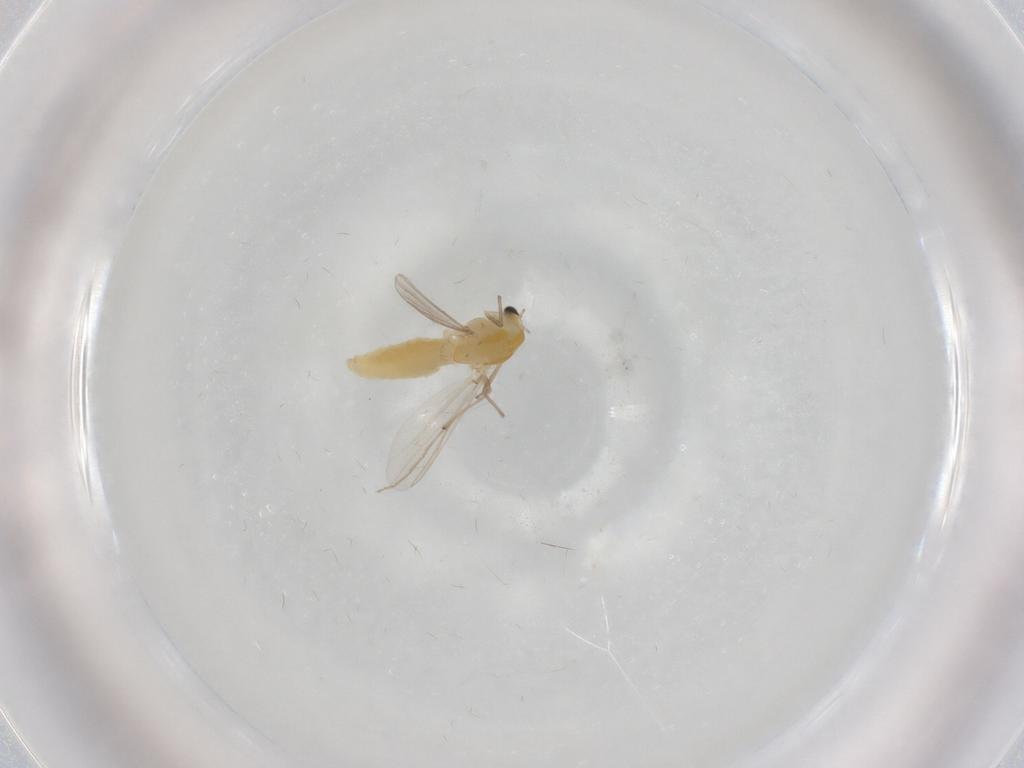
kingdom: Animalia
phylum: Arthropoda
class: Insecta
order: Diptera
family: Chironomidae
